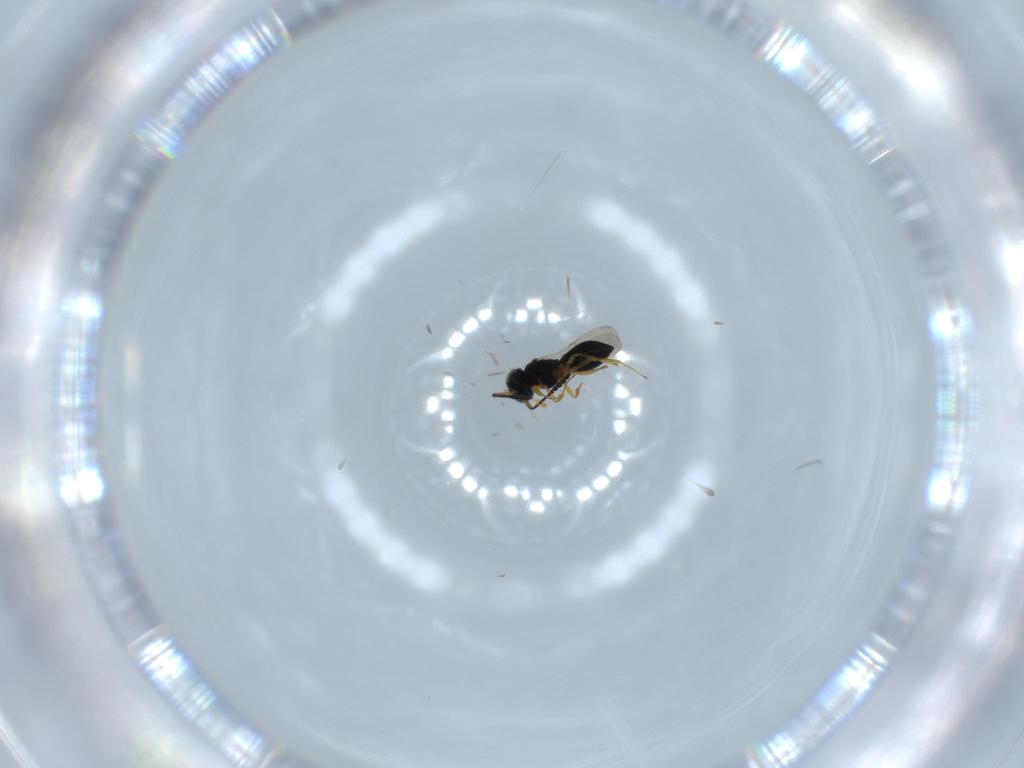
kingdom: Animalia
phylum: Arthropoda
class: Insecta
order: Hymenoptera
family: Scelionidae
